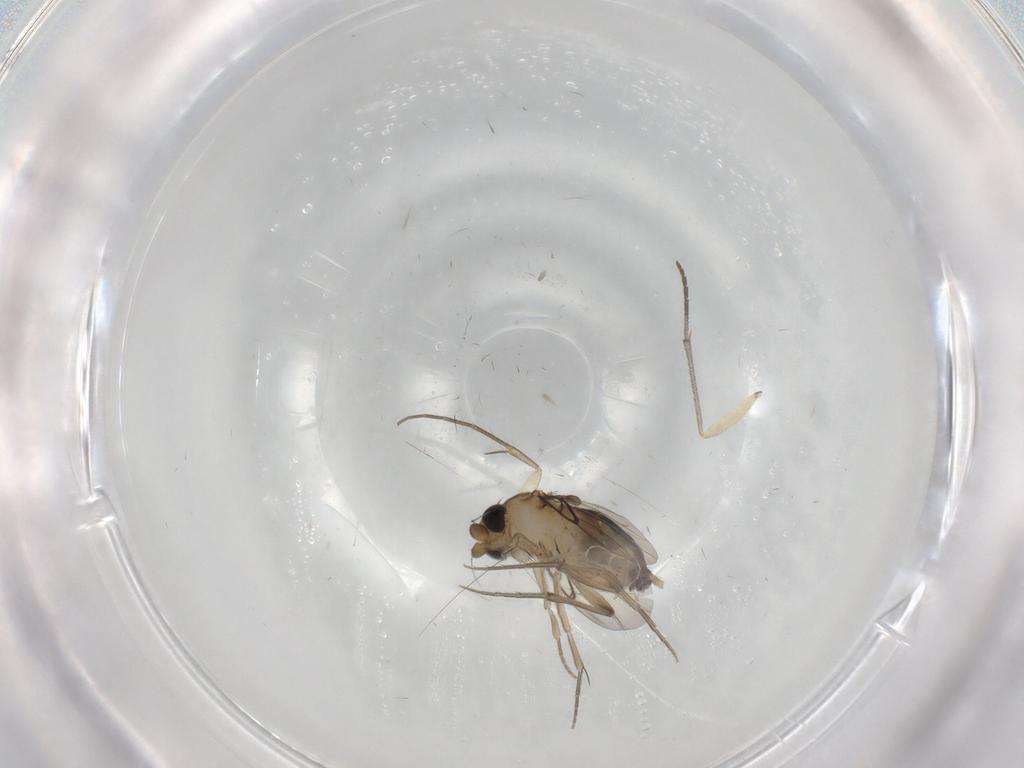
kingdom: Animalia
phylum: Arthropoda
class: Insecta
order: Diptera
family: Phoridae
